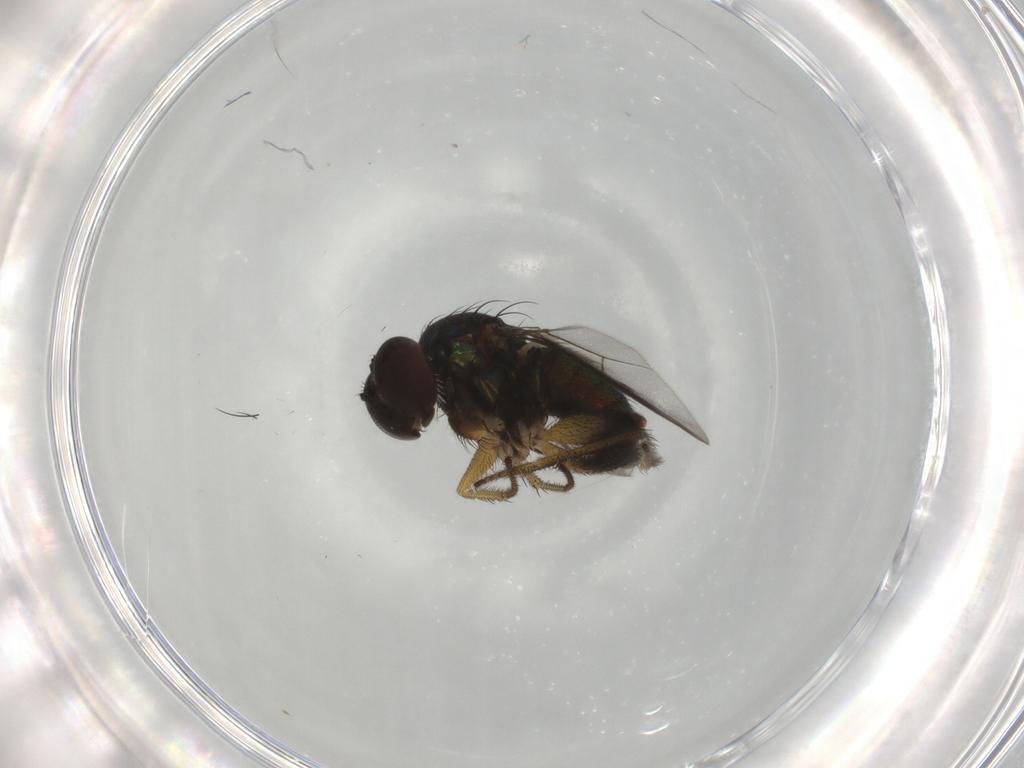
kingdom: Animalia
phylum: Arthropoda
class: Insecta
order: Diptera
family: Dolichopodidae
